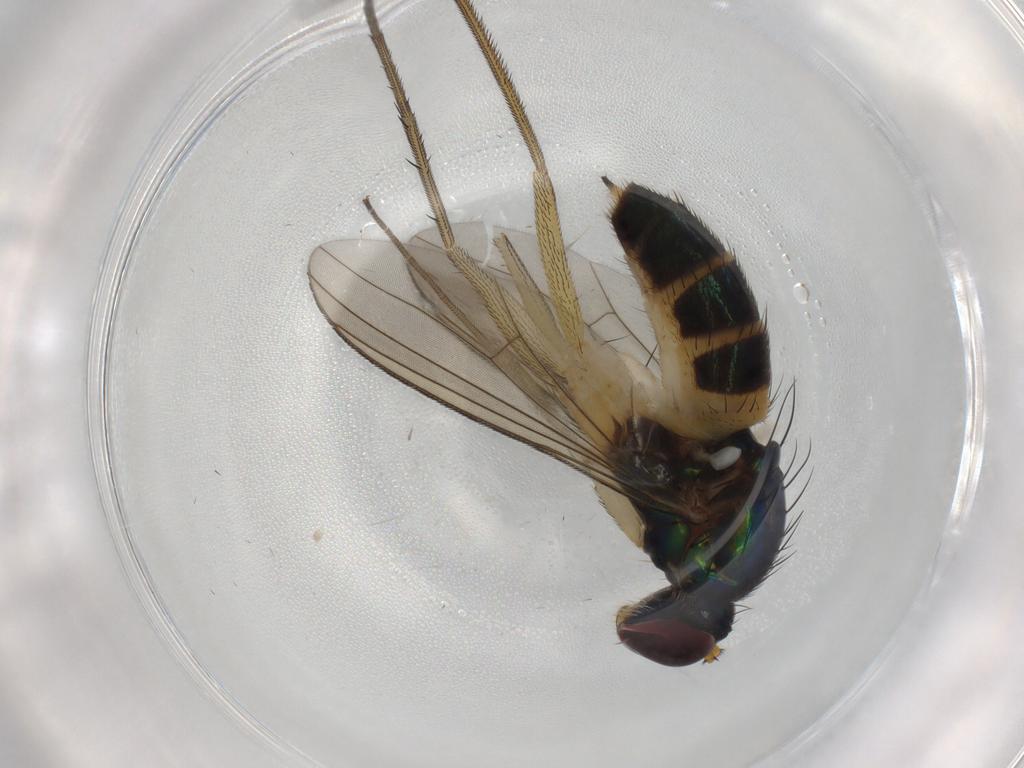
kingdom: Animalia
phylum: Arthropoda
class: Insecta
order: Diptera
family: Dolichopodidae
